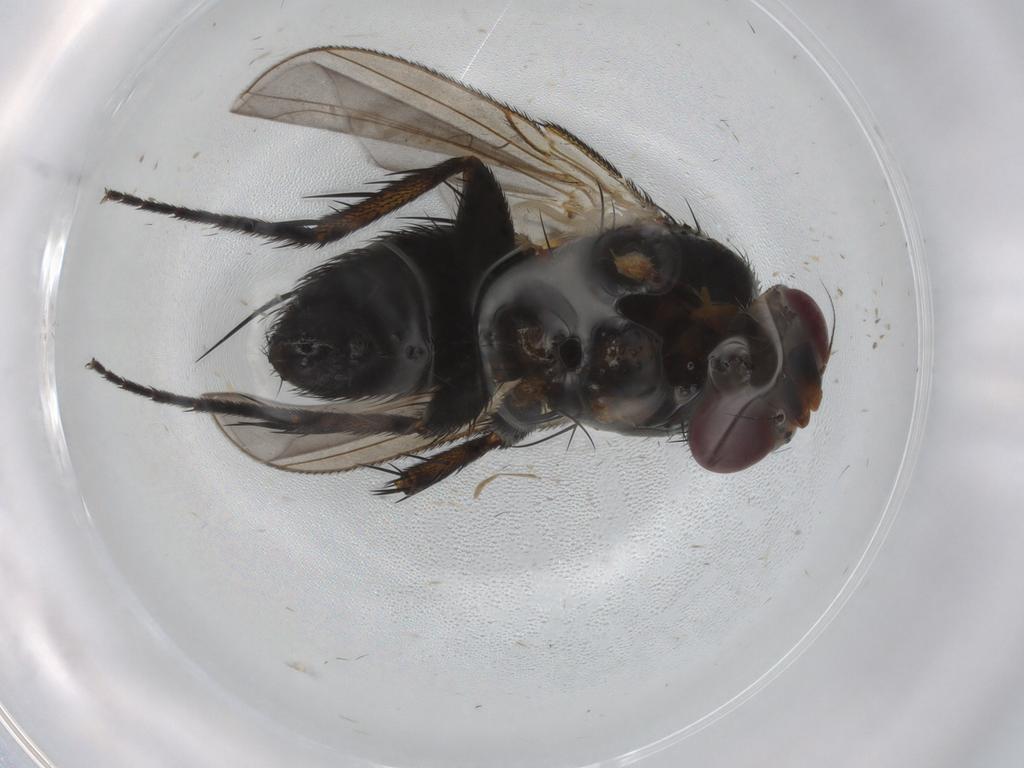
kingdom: Animalia
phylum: Arthropoda
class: Insecta
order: Diptera
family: Tachinidae
